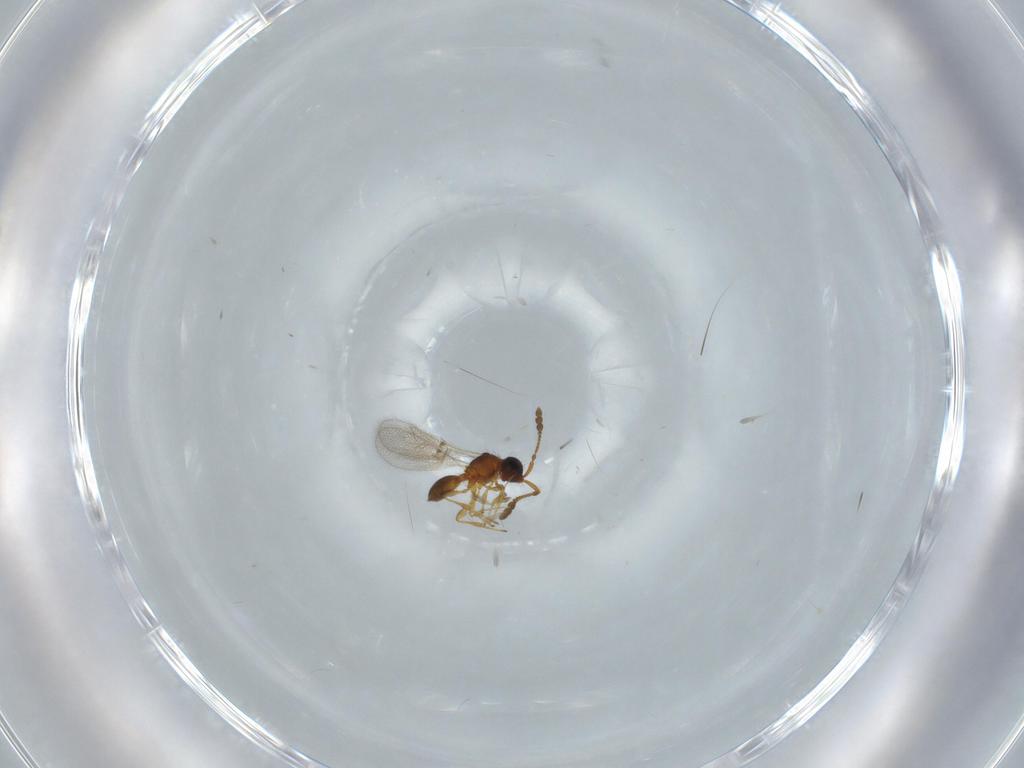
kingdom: Animalia
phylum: Arthropoda
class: Insecta
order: Hymenoptera
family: Diapriidae
